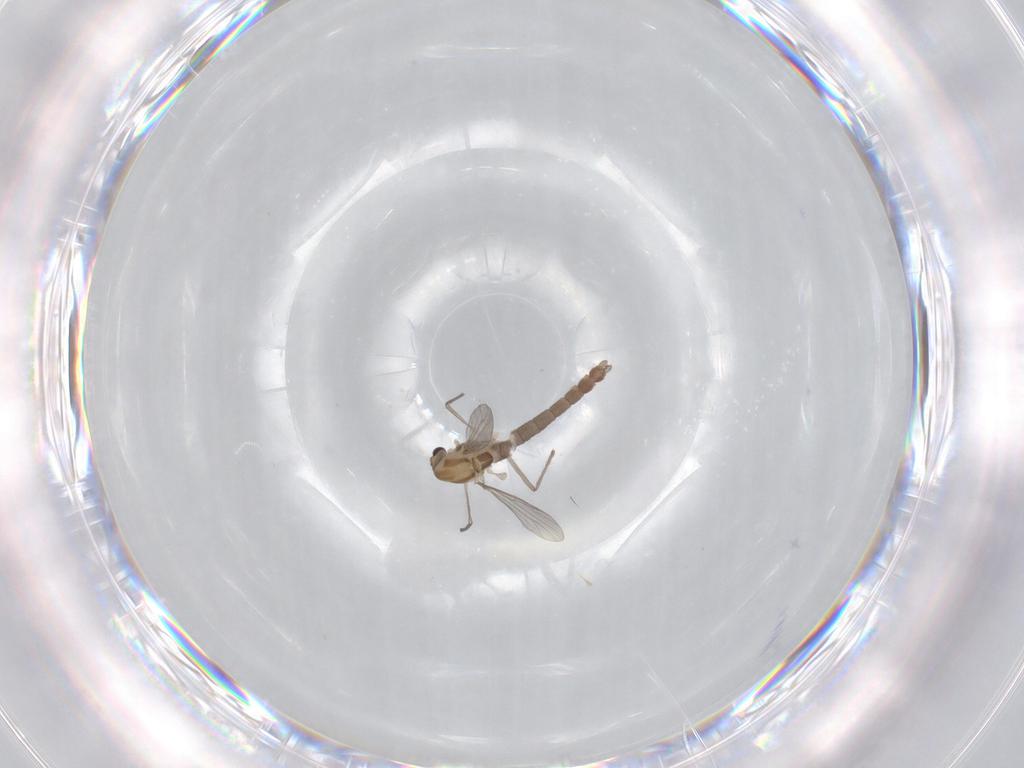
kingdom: Animalia
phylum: Arthropoda
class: Insecta
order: Diptera
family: Chironomidae
